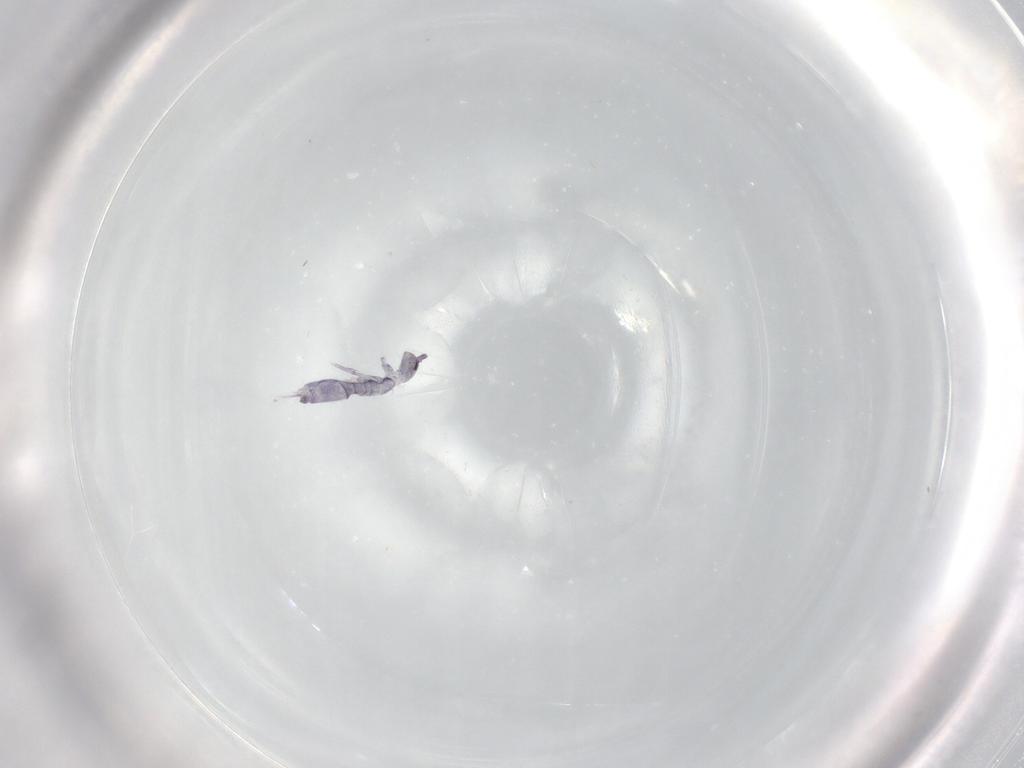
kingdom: Animalia
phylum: Arthropoda
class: Collembola
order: Entomobryomorpha
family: Entomobryidae
